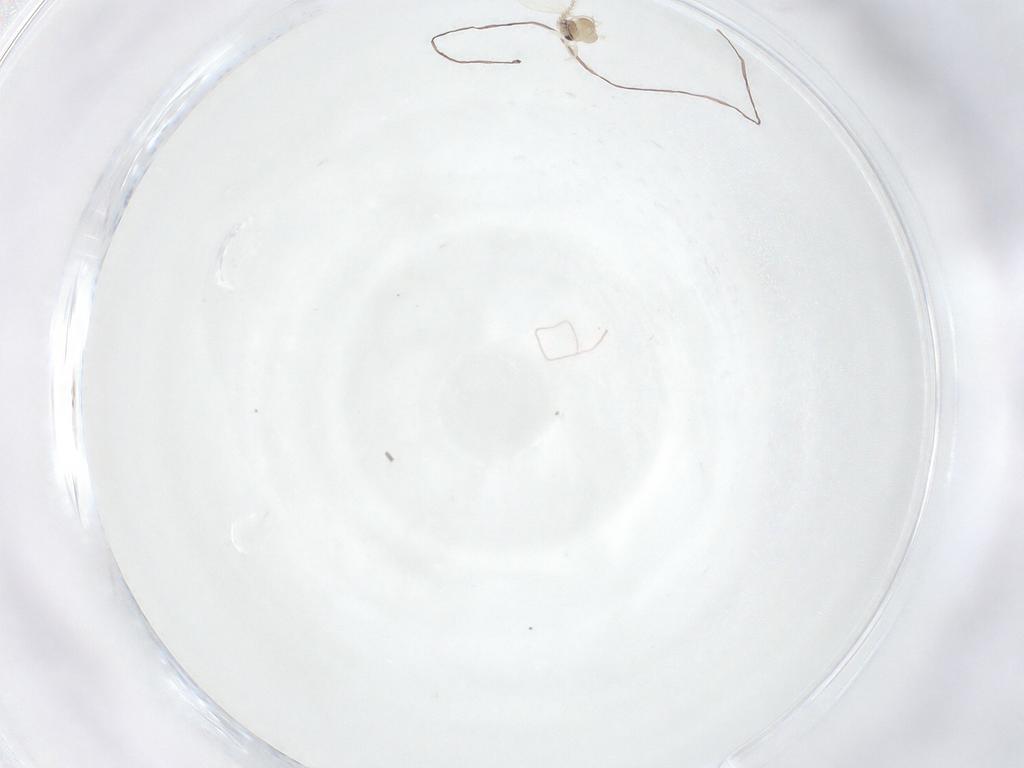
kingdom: Animalia
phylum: Arthropoda
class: Insecta
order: Diptera
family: Cecidomyiidae
